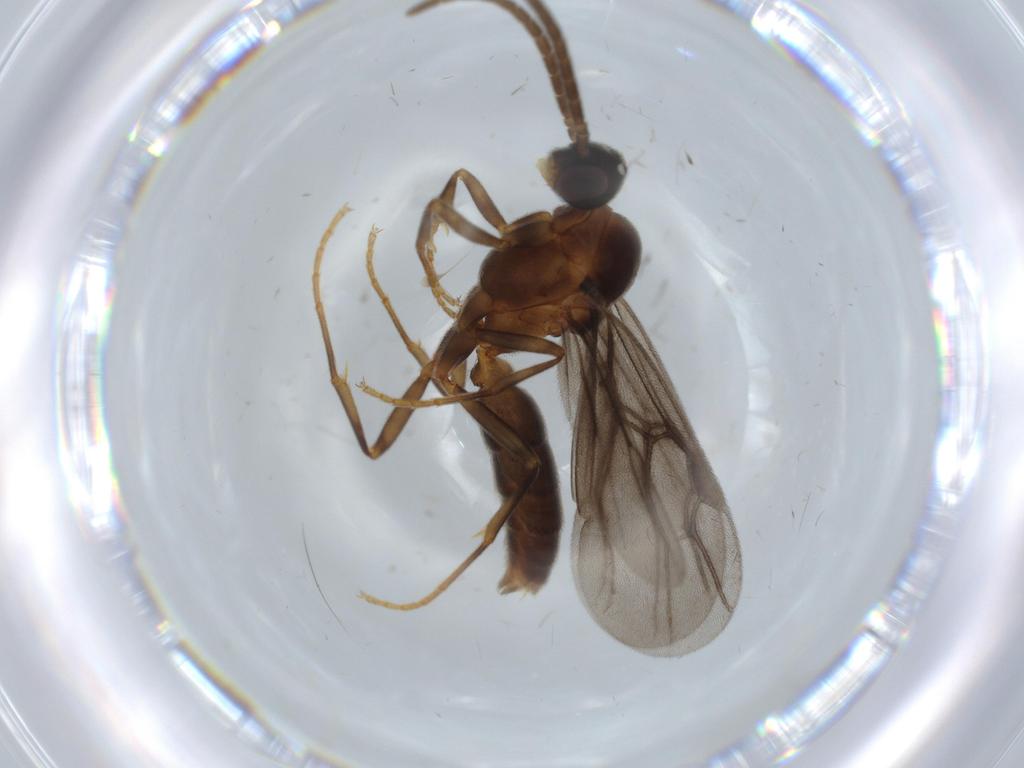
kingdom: Animalia
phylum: Arthropoda
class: Insecta
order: Hymenoptera
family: Formicidae
